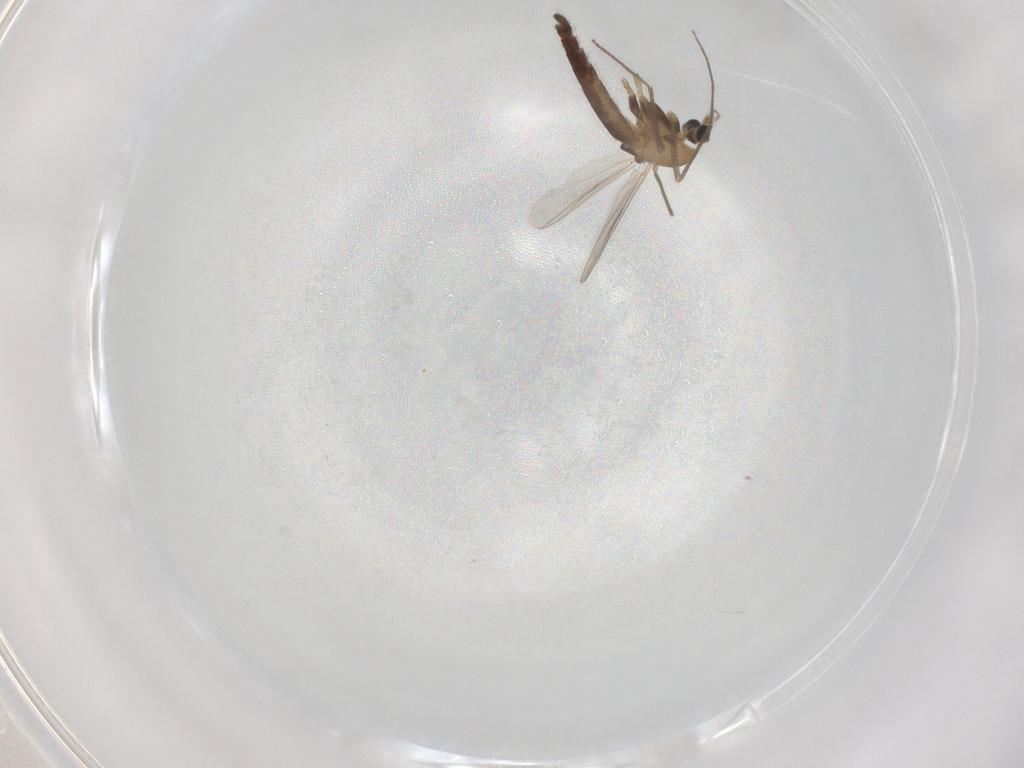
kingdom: Animalia
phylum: Arthropoda
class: Insecta
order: Diptera
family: Chironomidae
